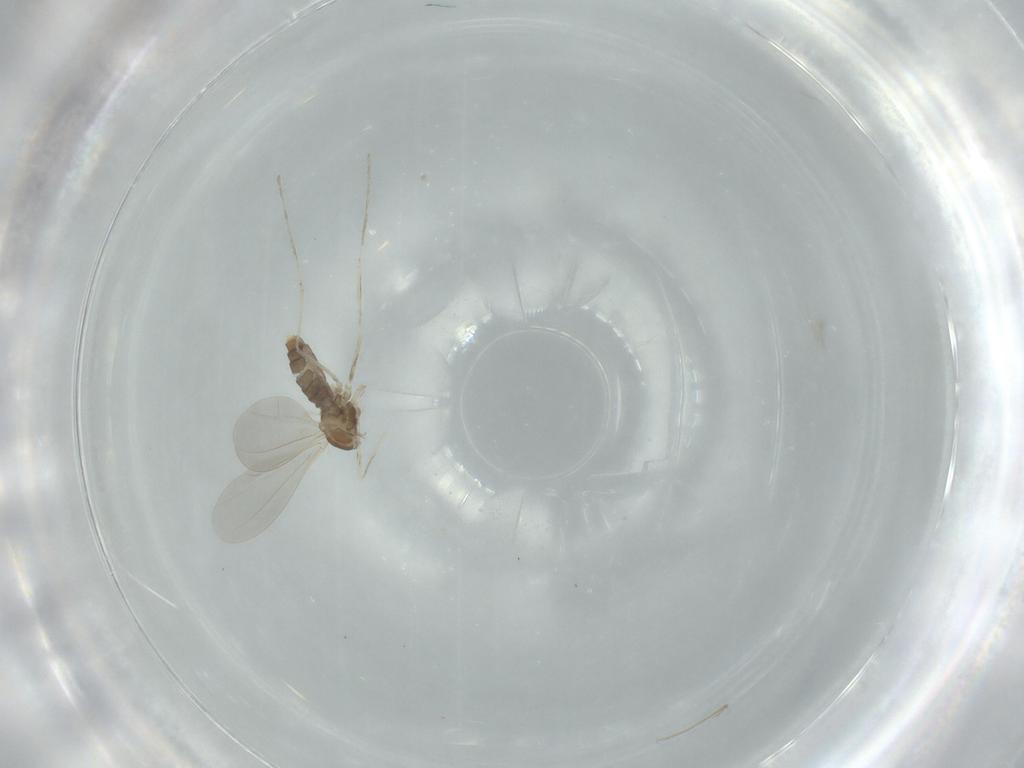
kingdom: Animalia
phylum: Arthropoda
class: Insecta
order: Diptera
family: Cecidomyiidae
